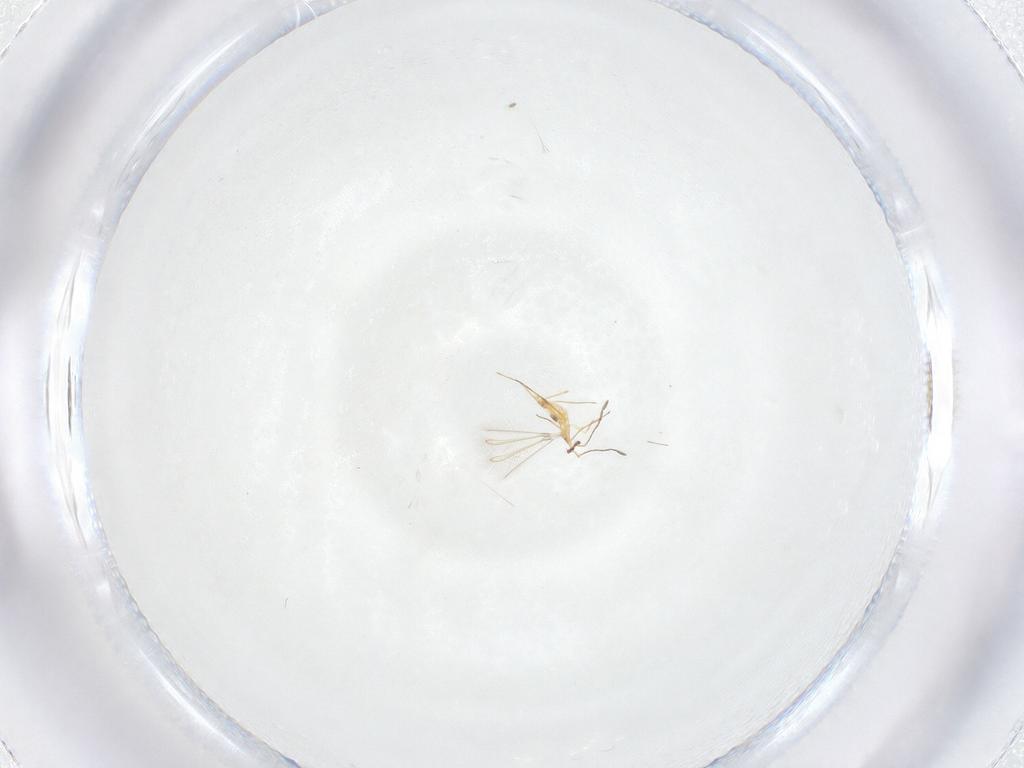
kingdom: Animalia
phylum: Arthropoda
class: Insecta
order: Hymenoptera
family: Mymaridae
